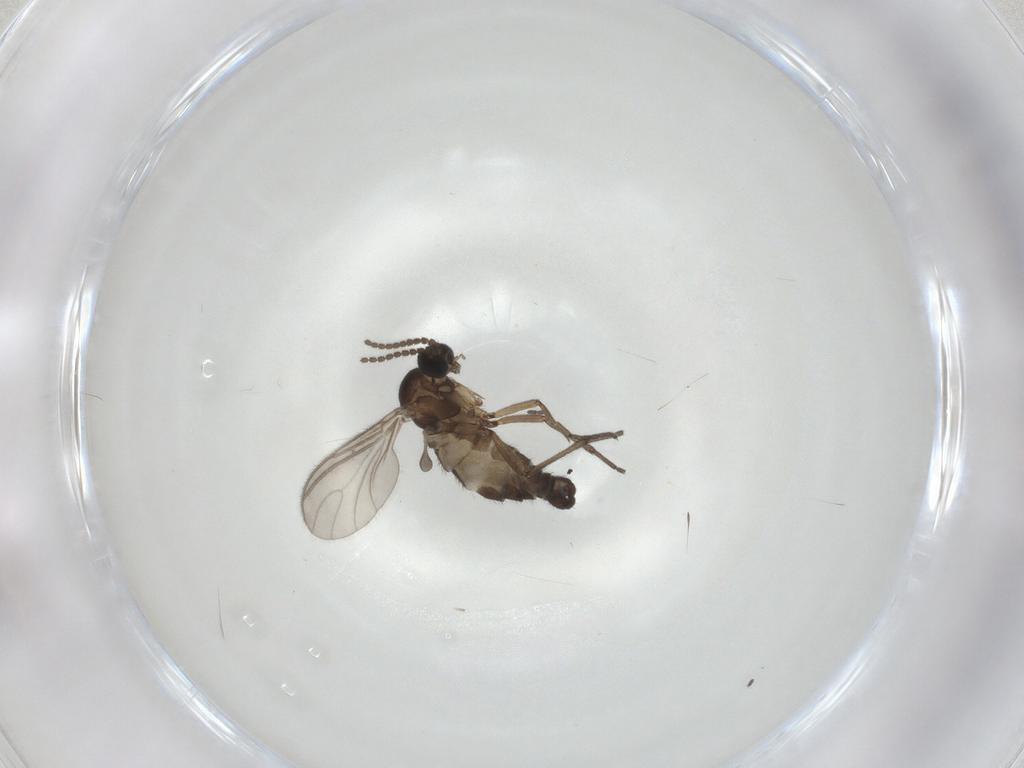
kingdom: Animalia
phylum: Arthropoda
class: Insecta
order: Diptera
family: Sciaridae
